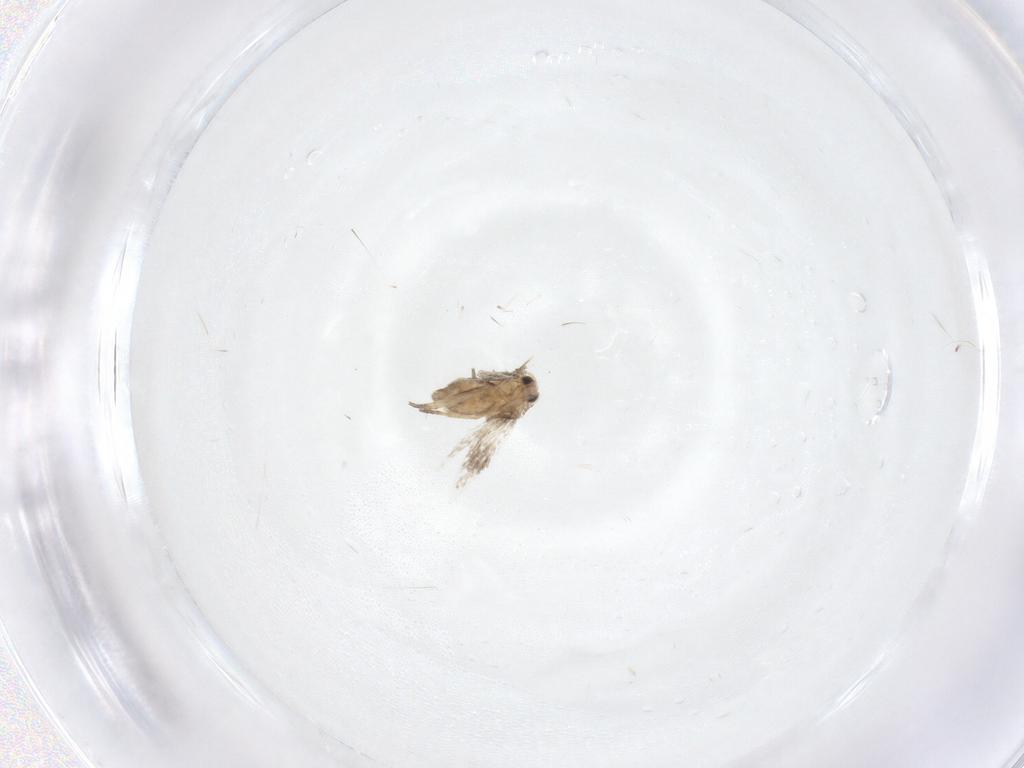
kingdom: Animalia
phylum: Arthropoda
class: Insecta
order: Lepidoptera
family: Nepticulidae
